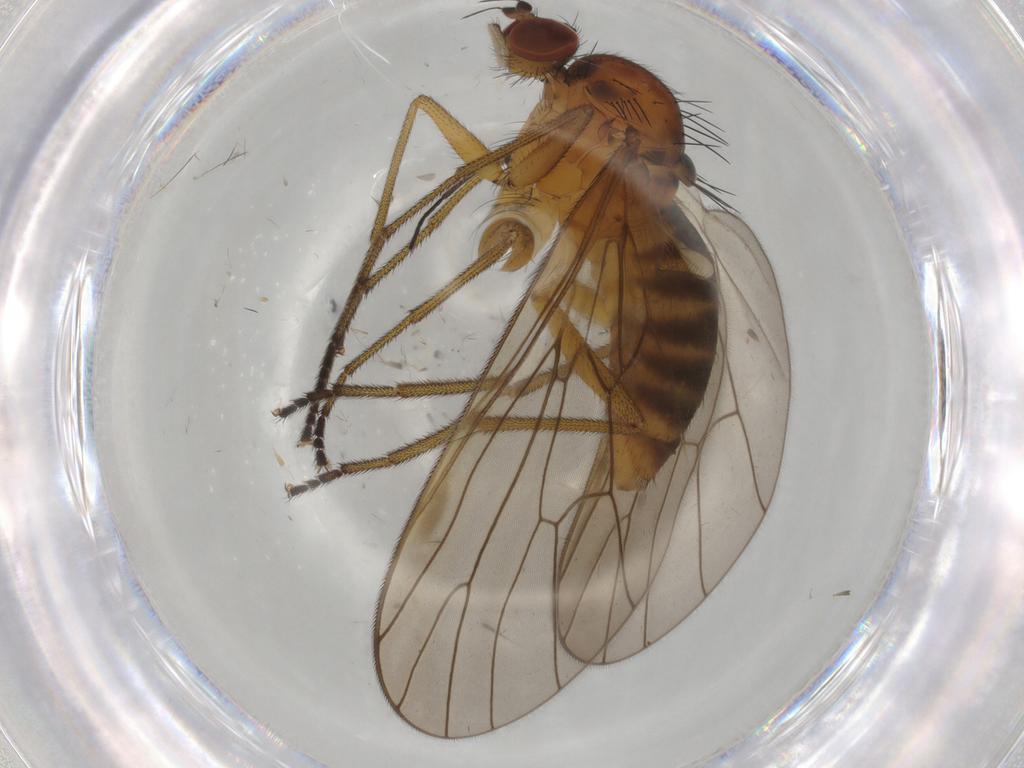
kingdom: Animalia
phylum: Arthropoda
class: Insecta
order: Diptera
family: Brachystomatidae
